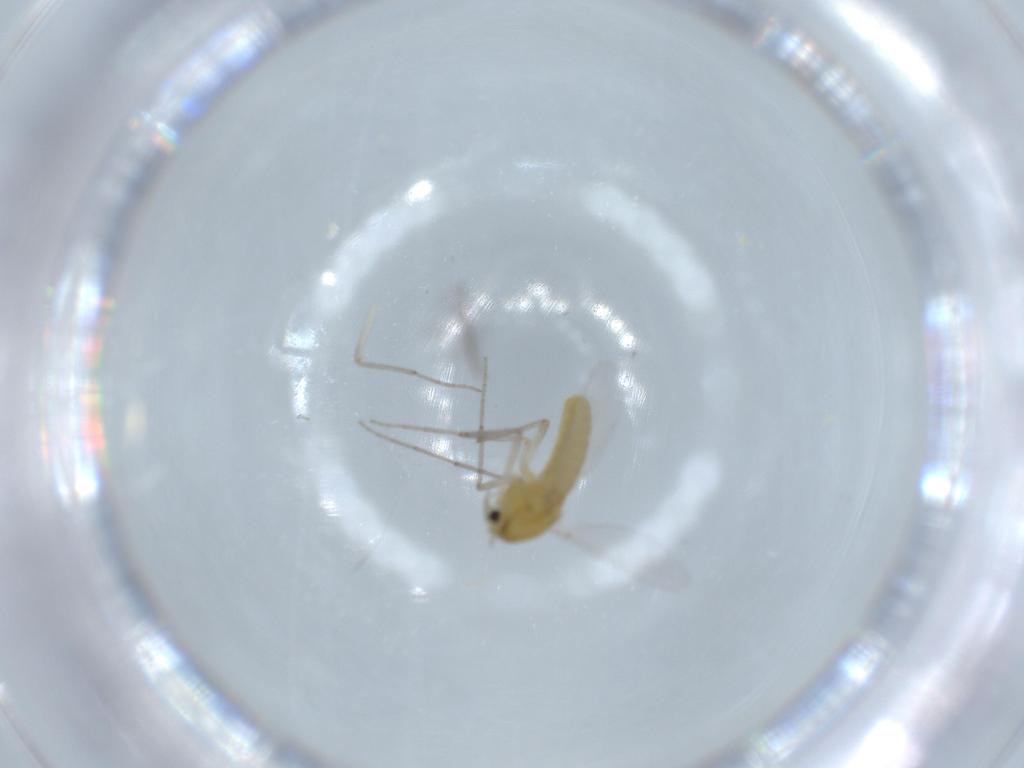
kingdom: Animalia
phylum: Arthropoda
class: Insecta
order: Diptera
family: Chironomidae
